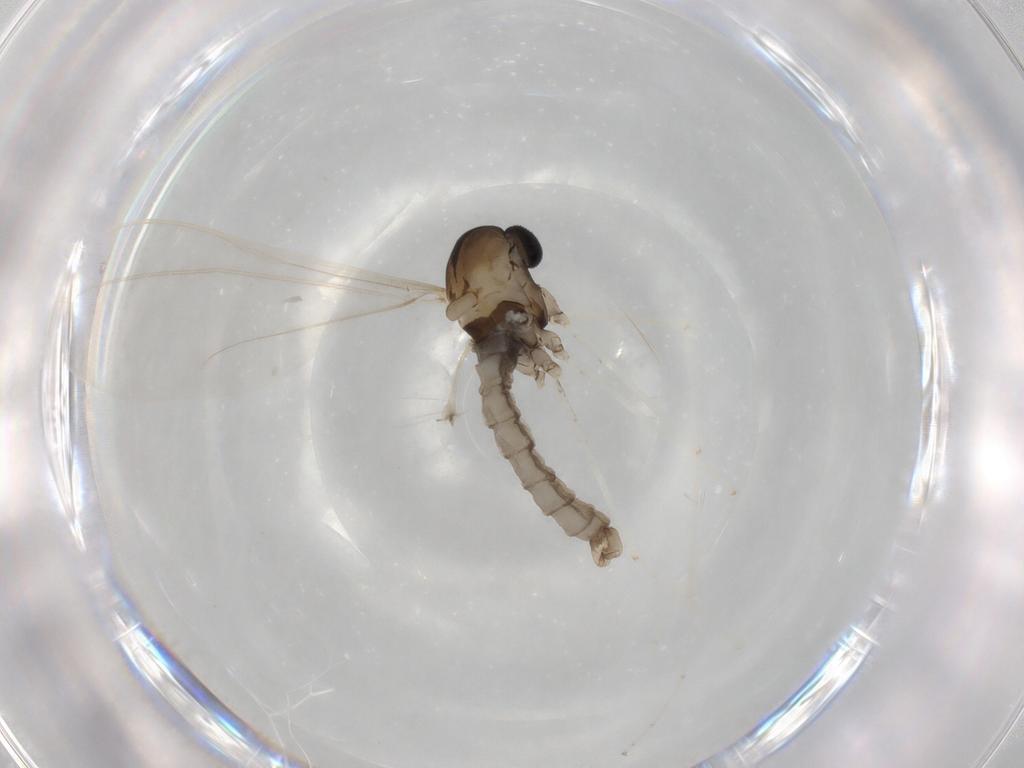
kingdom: Animalia
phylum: Arthropoda
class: Insecta
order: Diptera
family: Cecidomyiidae
